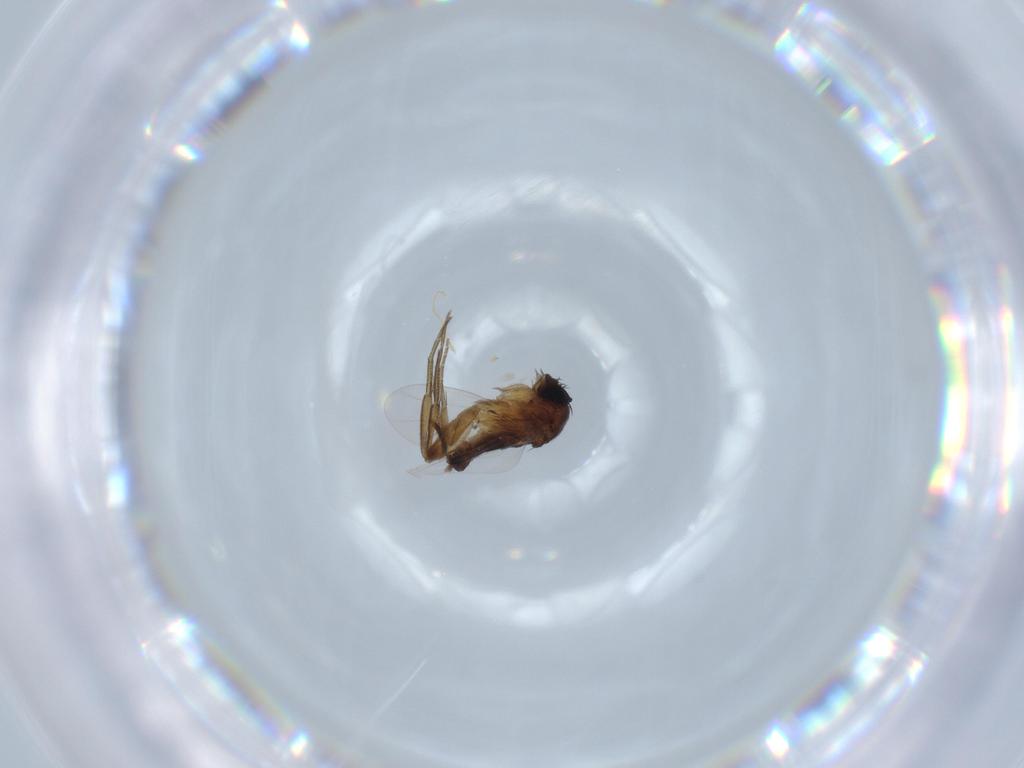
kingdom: Animalia
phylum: Arthropoda
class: Insecta
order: Diptera
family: Phoridae
